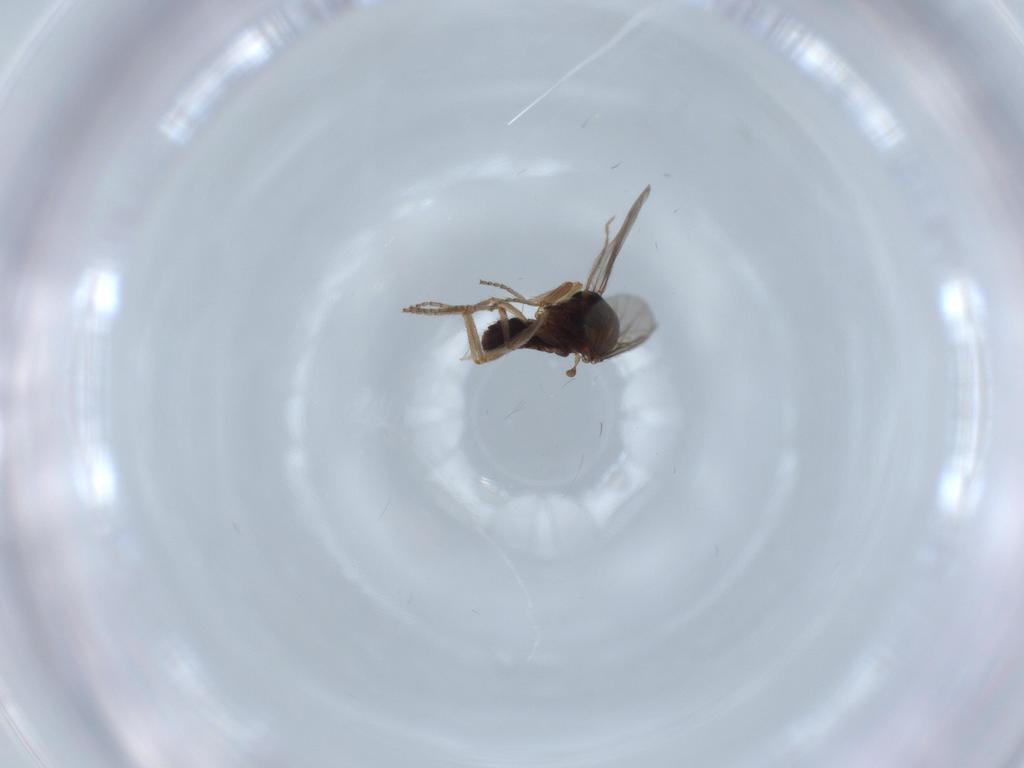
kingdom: Animalia
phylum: Arthropoda
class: Insecta
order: Diptera
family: Ceratopogonidae
